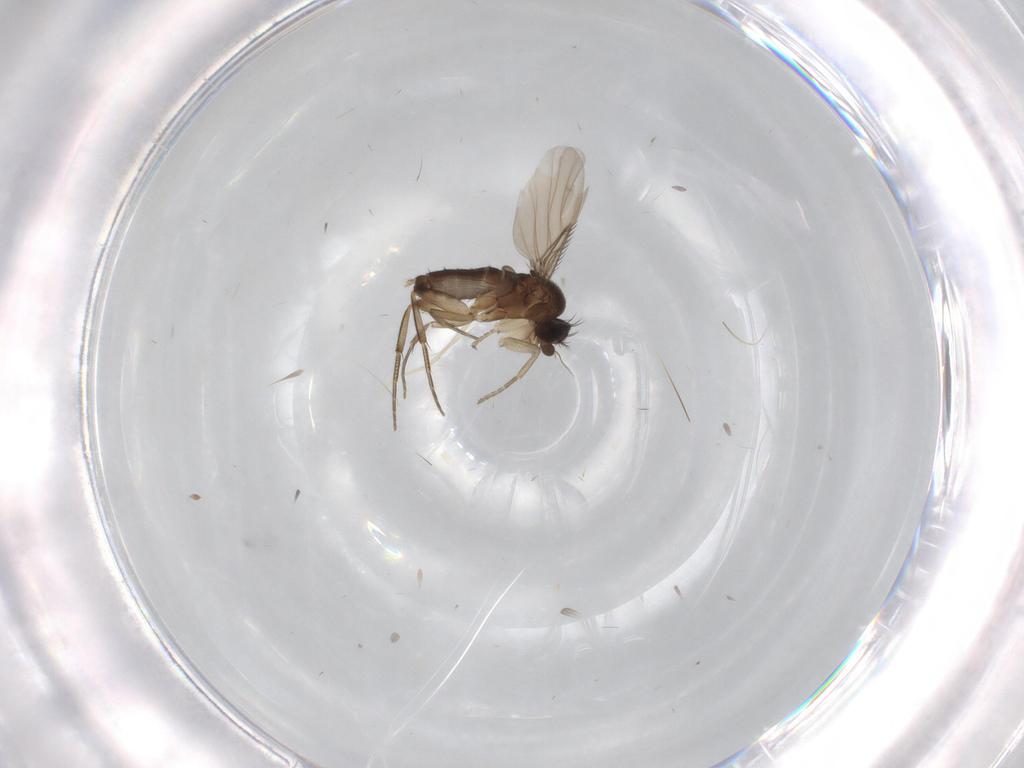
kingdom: Animalia
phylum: Arthropoda
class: Insecta
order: Diptera
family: Phoridae
